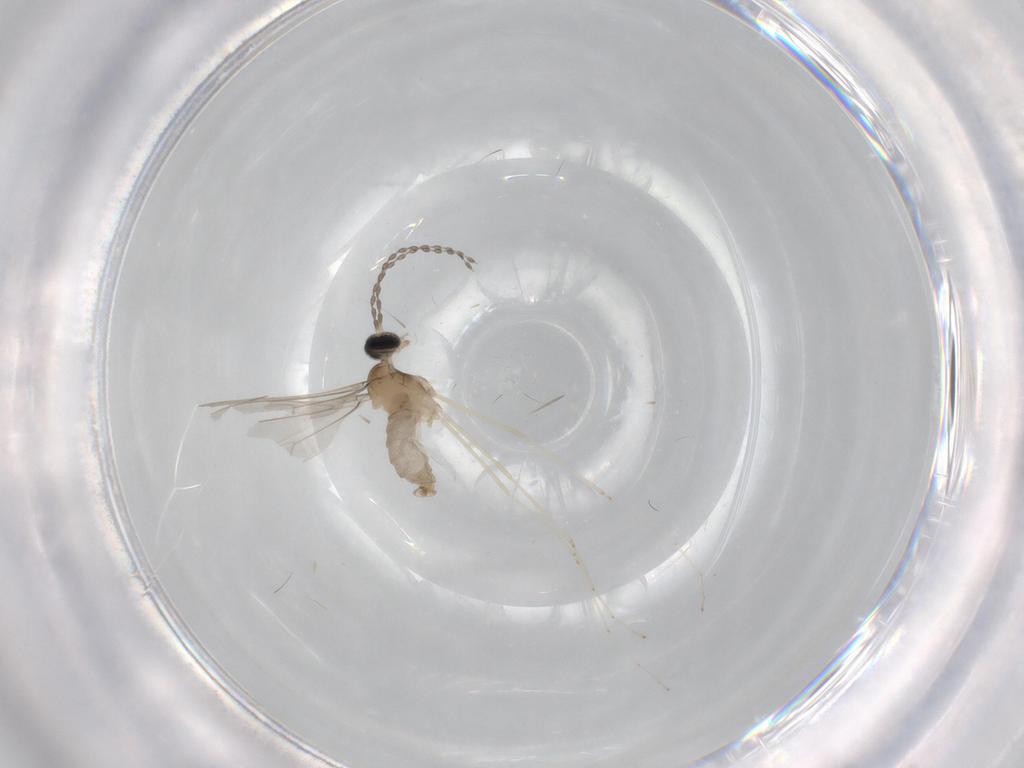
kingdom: Animalia
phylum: Arthropoda
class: Insecta
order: Diptera
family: Cecidomyiidae
